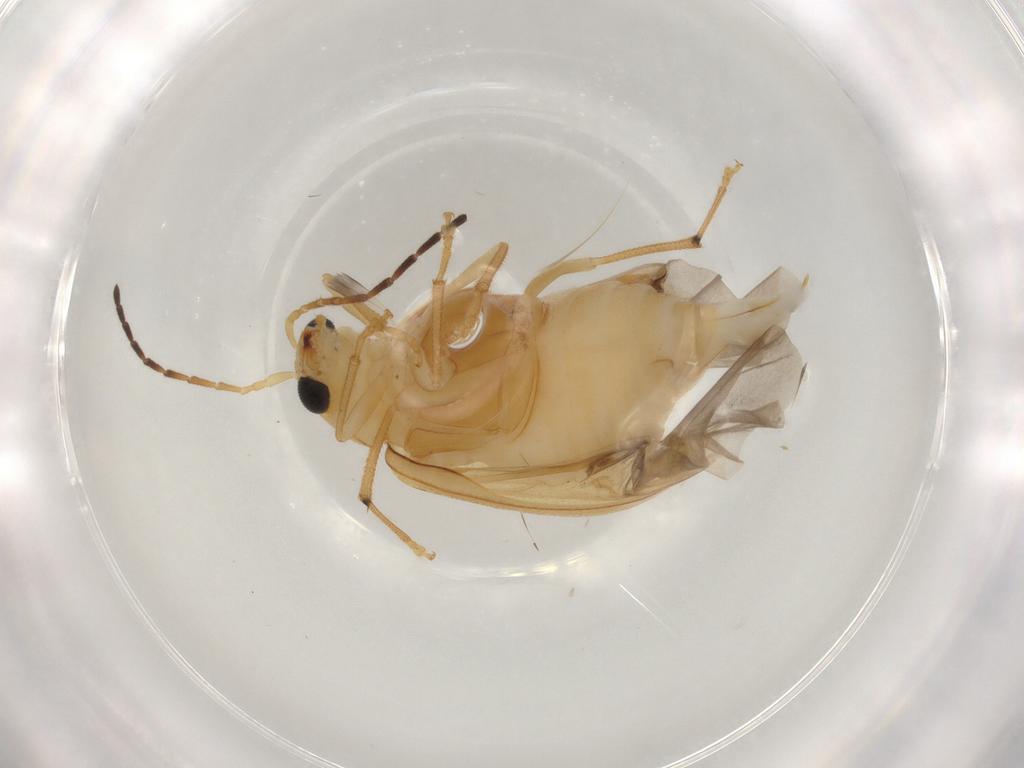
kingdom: Animalia
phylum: Arthropoda
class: Insecta
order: Coleoptera
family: Chrysomelidae
